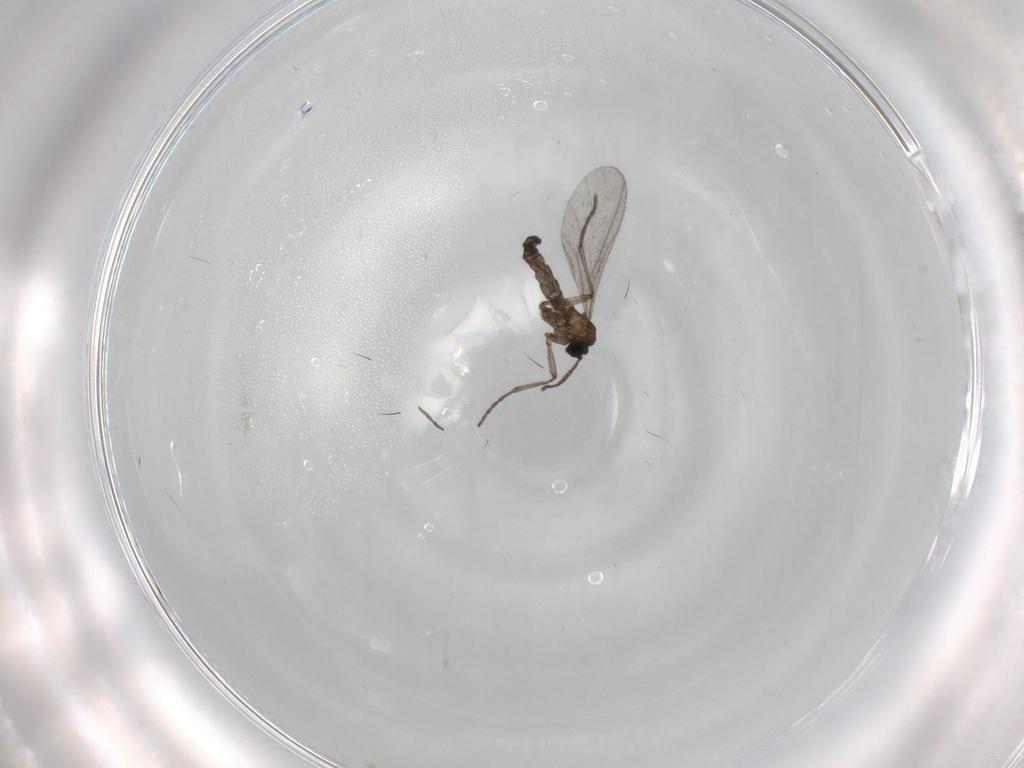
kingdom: Animalia
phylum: Arthropoda
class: Insecta
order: Diptera
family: Sciaridae
